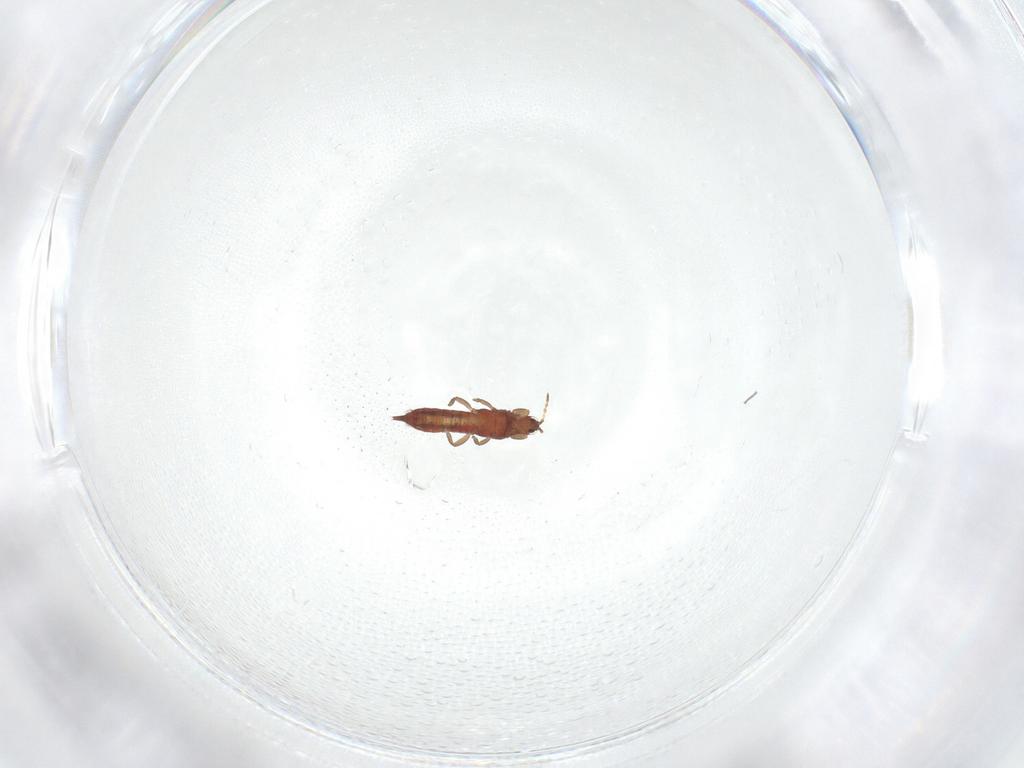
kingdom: Animalia
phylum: Arthropoda
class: Insecta
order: Thysanoptera
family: Phlaeothripidae
